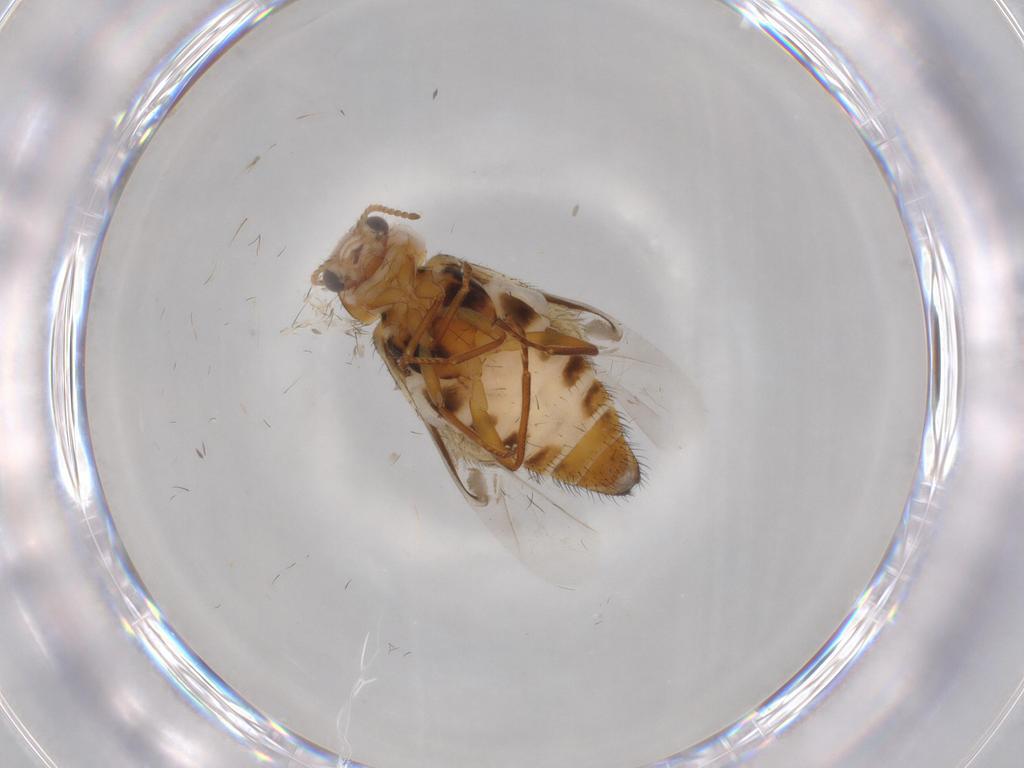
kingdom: Animalia
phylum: Arthropoda
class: Insecta
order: Coleoptera
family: Melyridae
